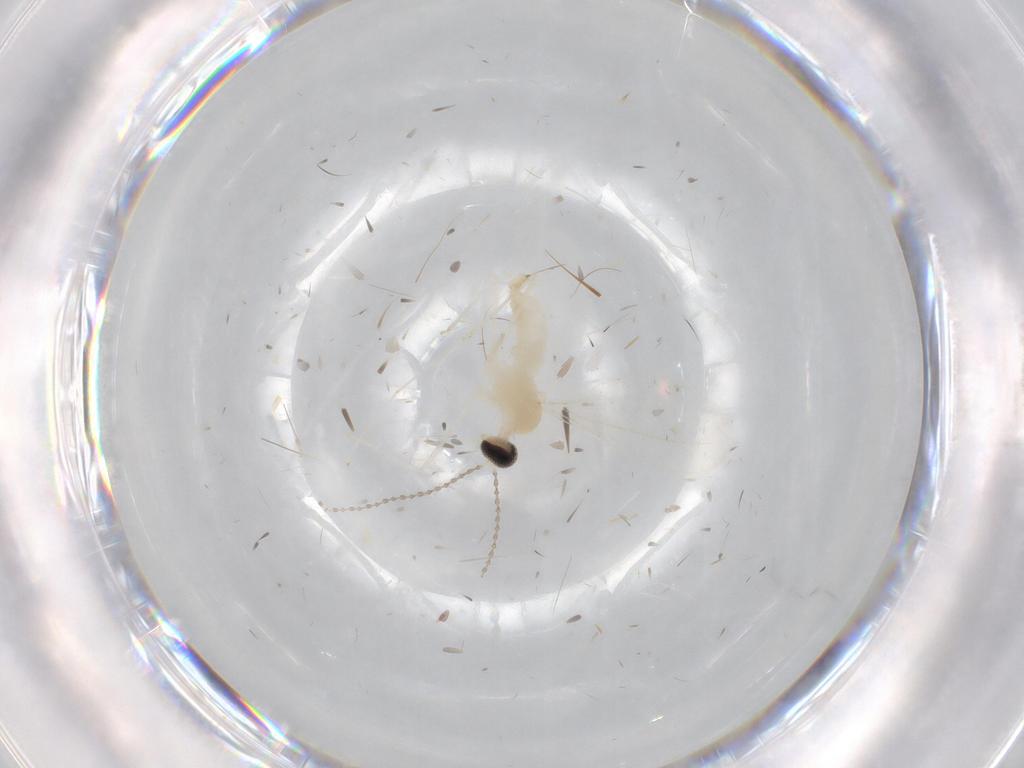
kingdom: Animalia
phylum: Arthropoda
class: Insecta
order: Diptera
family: Cecidomyiidae
